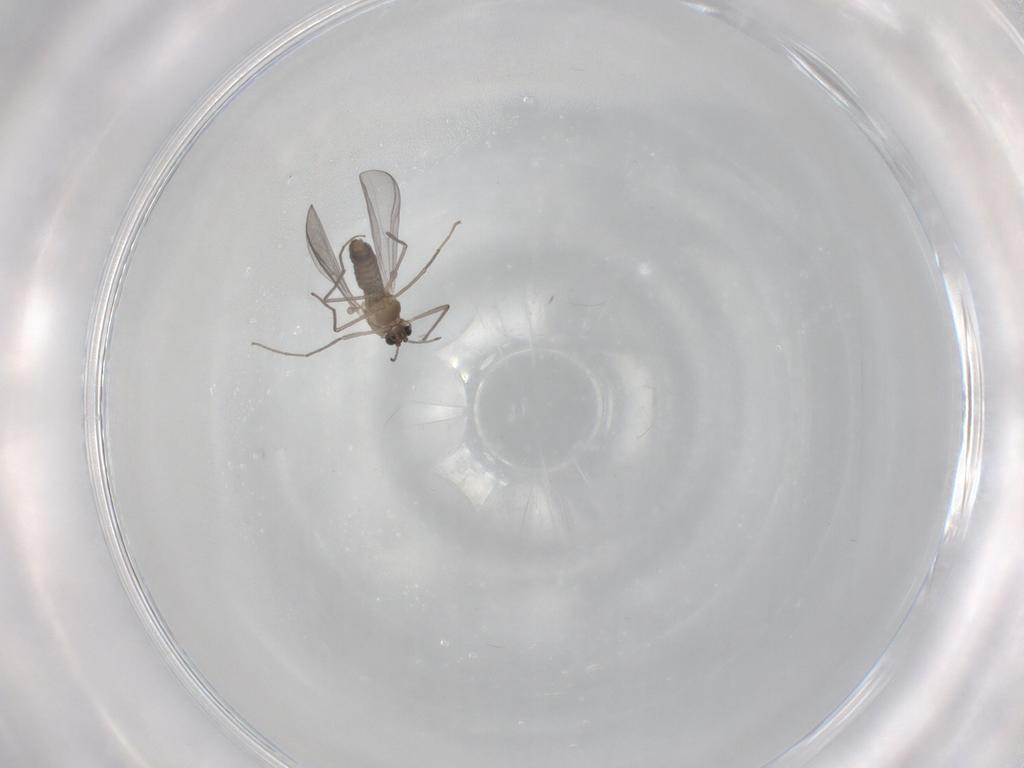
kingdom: Animalia
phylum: Arthropoda
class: Insecta
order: Diptera
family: Chironomidae
